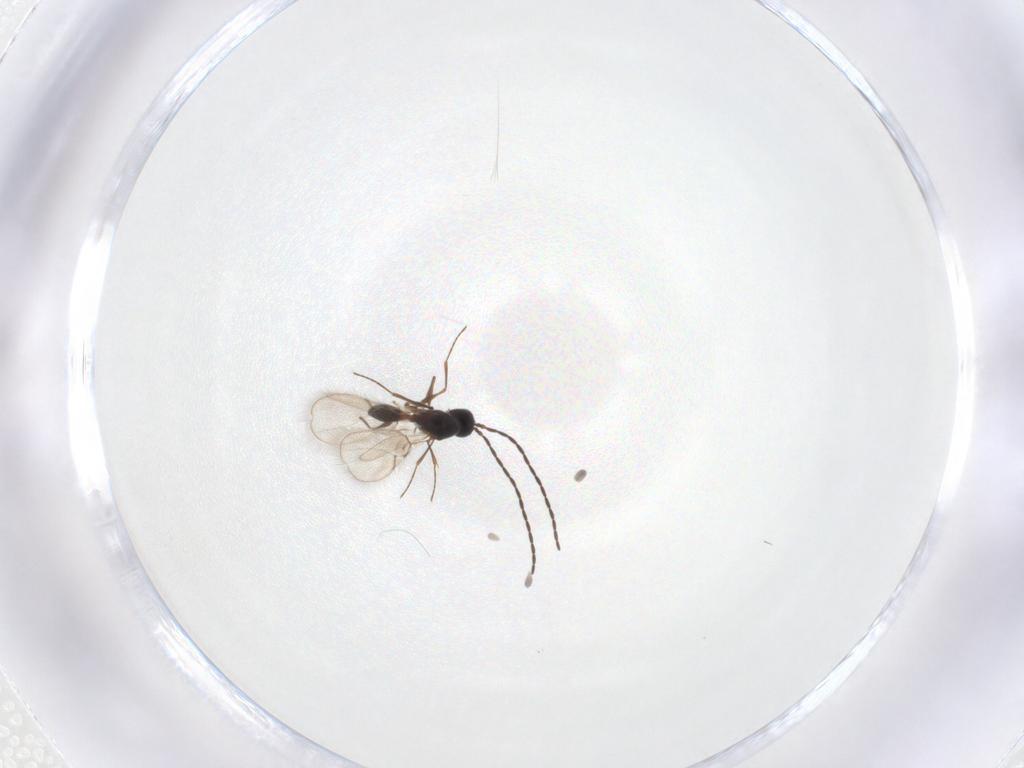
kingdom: Animalia
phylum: Arthropoda
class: Insecta
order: Hymenoptera
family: Figitidae
